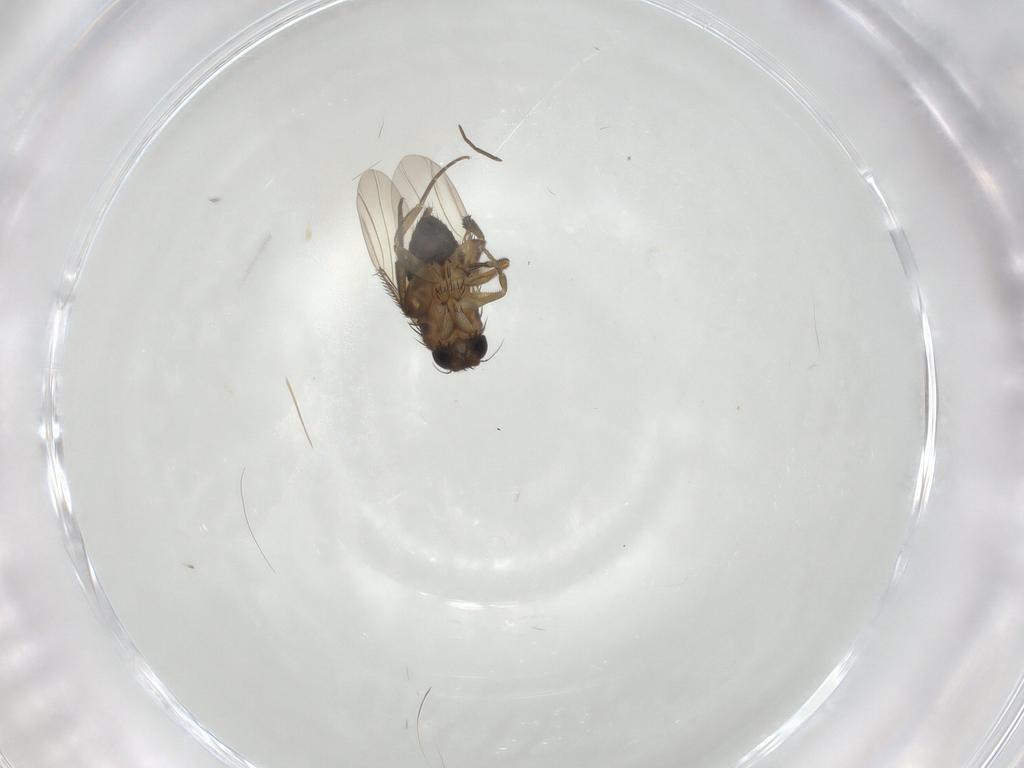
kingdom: Animalia
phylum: Arthropoda
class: Insecta
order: Diptera
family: Phoridae
